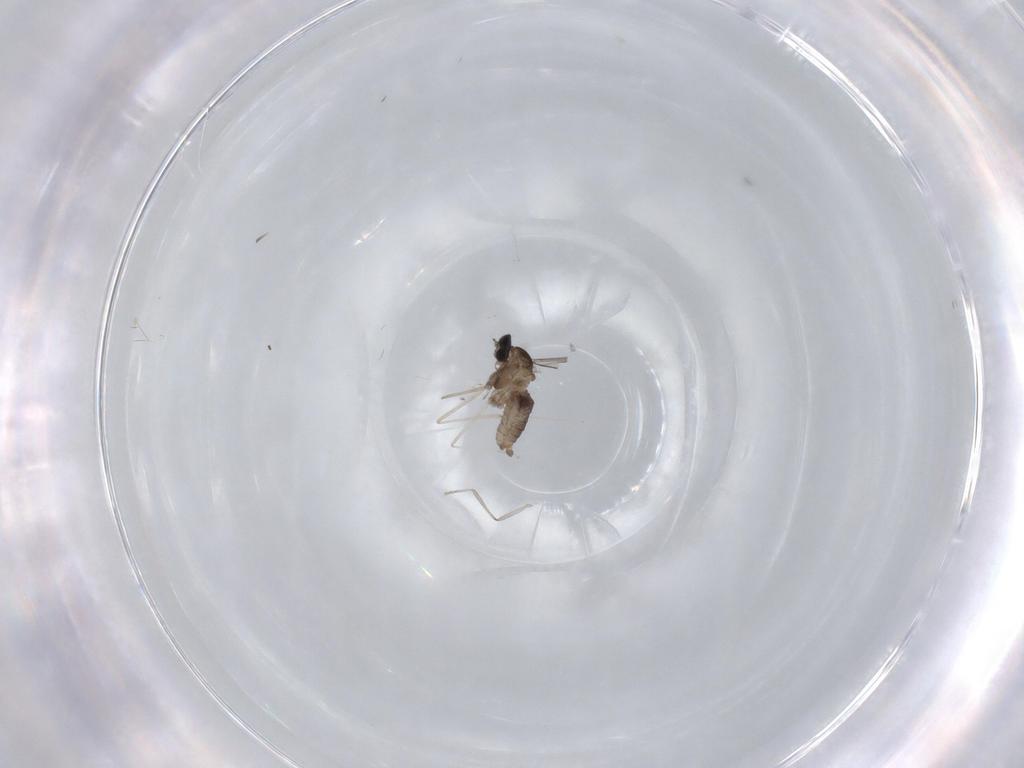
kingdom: Animalia
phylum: Arthropoda
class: Insecta
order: Diptera
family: Cecidomyiidae
